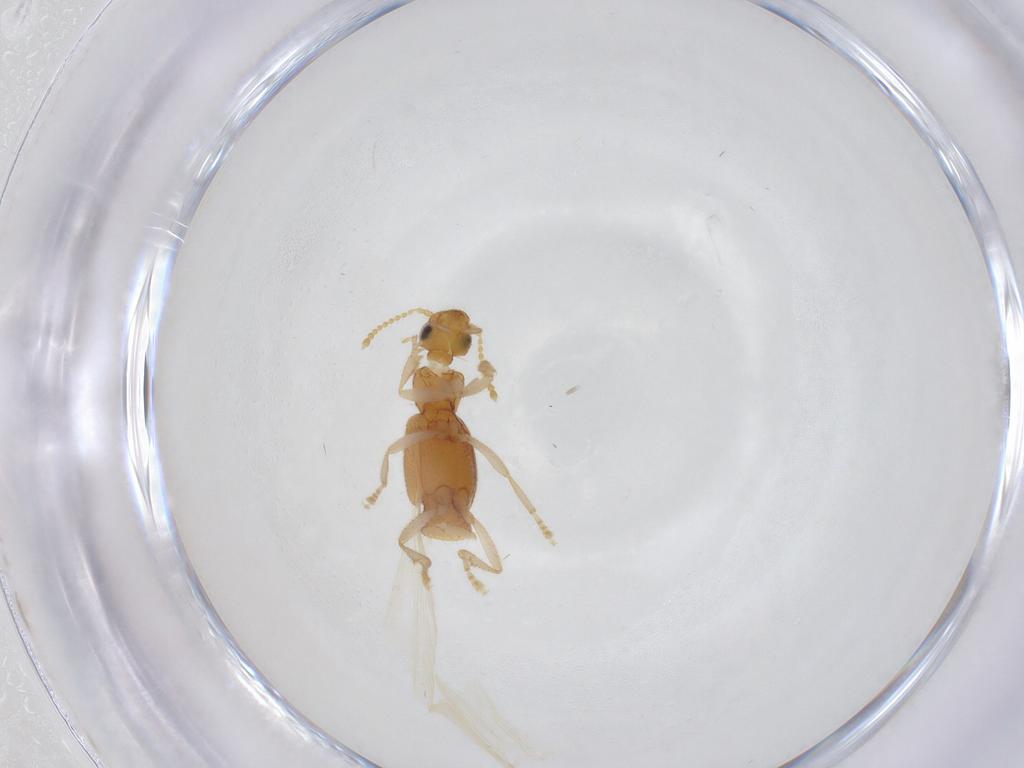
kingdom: Animalia
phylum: Arthropoda
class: Insecta
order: Coleoptera
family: Staphylinidae
